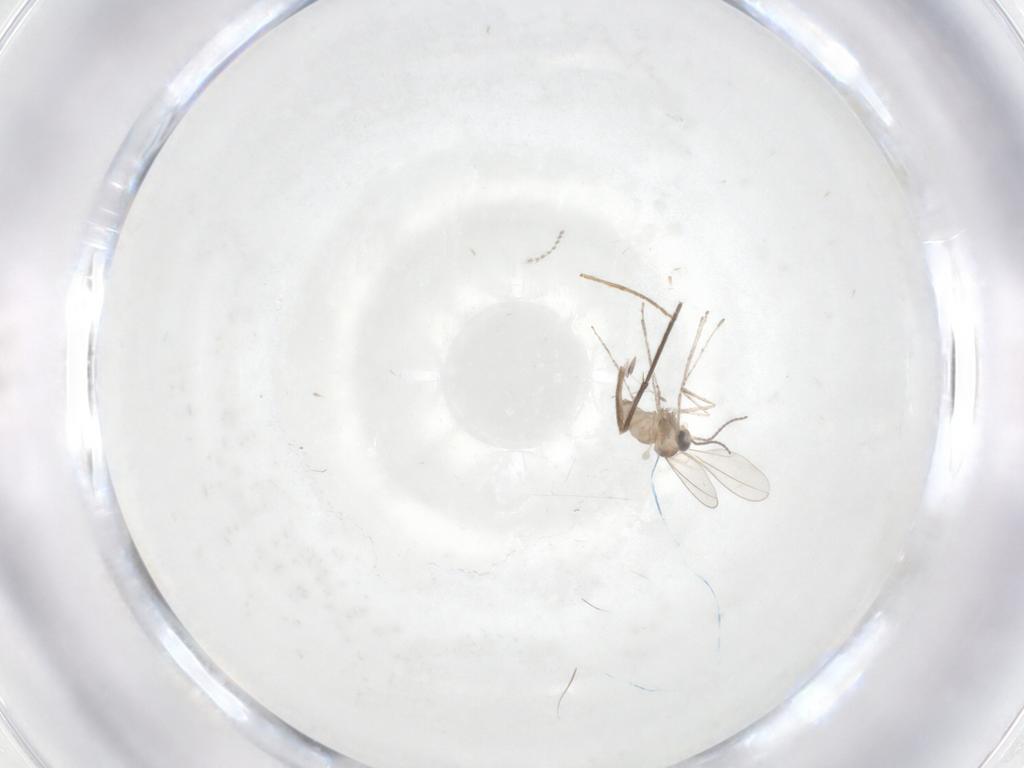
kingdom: Animalia
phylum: Arthropoda
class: Insecta
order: Diptera
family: Cecidomyiidae
